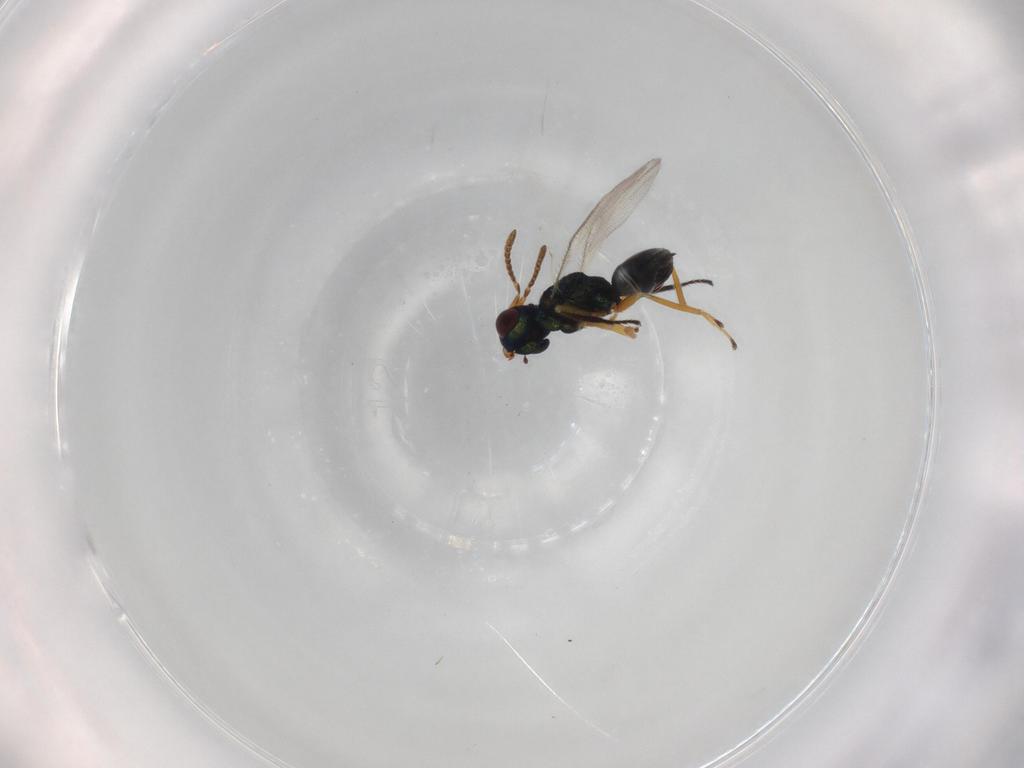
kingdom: Animalia
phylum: Arthropoda
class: Insecta
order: Hymenoptera
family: Pteromalidae
